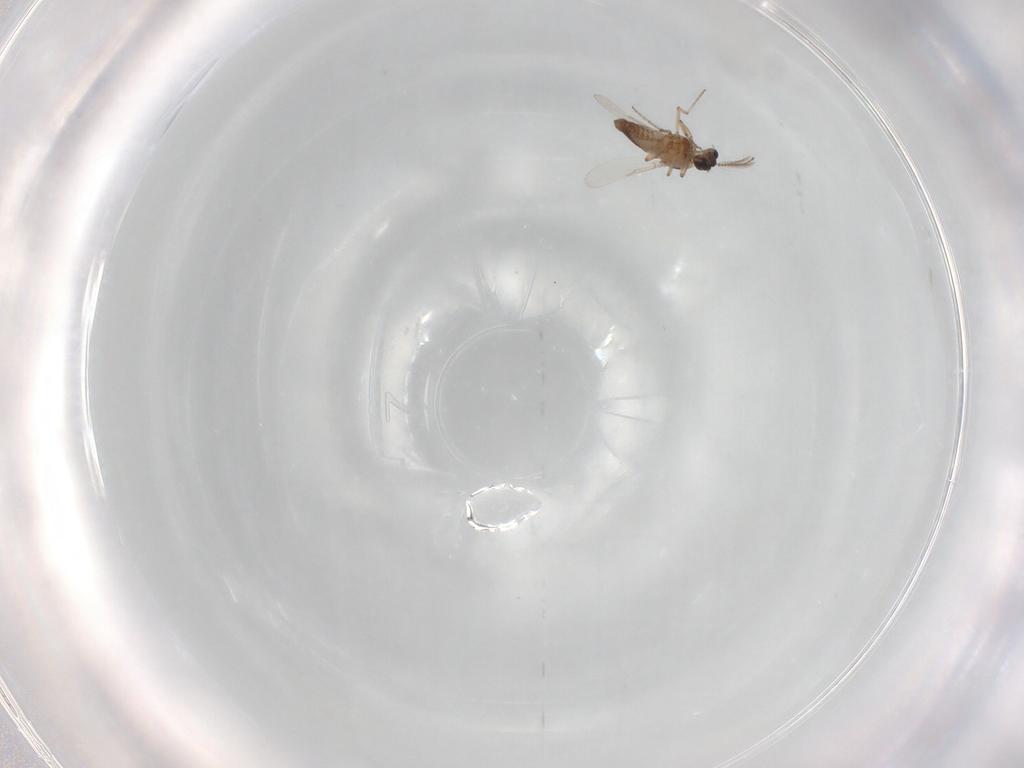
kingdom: Animalia
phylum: Arthropoda
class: Insecta
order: Diptera
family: Ceratopogonidae
